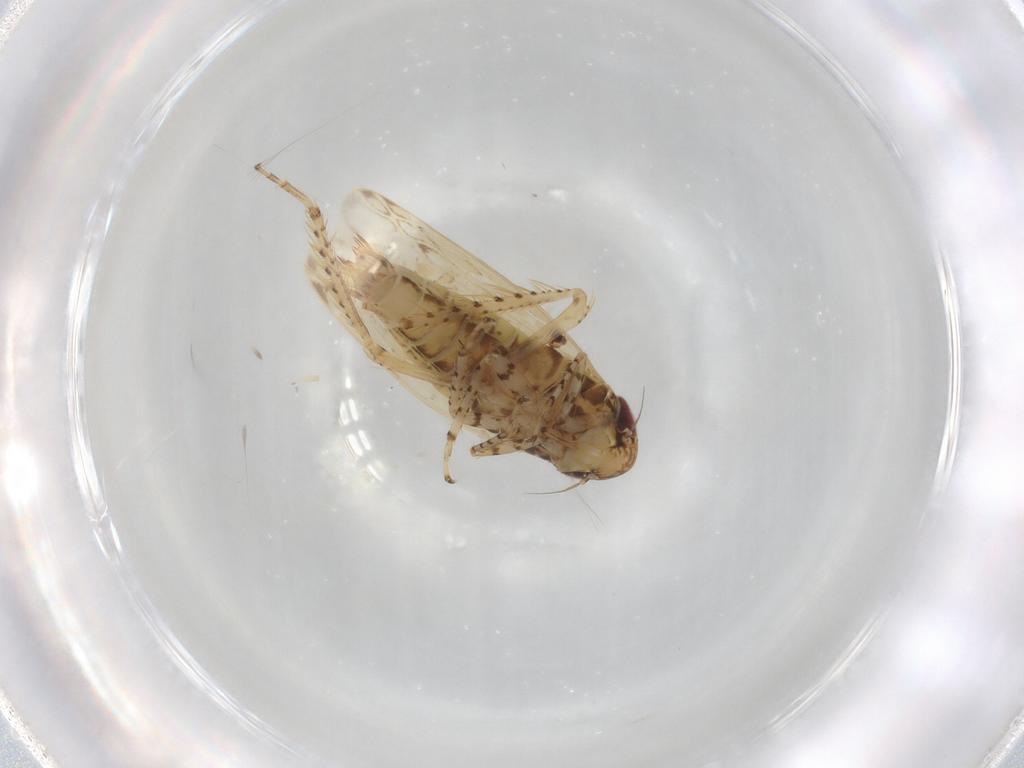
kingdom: Animalia
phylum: Arthropoda
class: Insecta
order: Hemiptera
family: Cicadellidae
